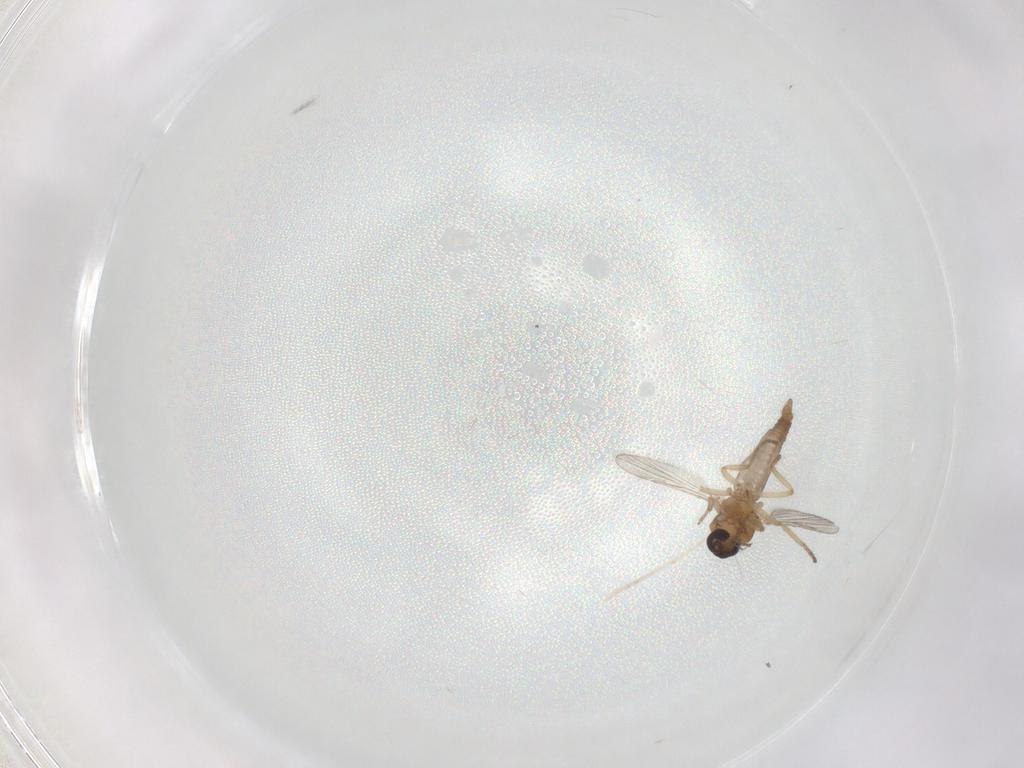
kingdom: Animalia
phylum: Arthropoda
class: Insecta
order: Diptera
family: Ceratopogonidae
